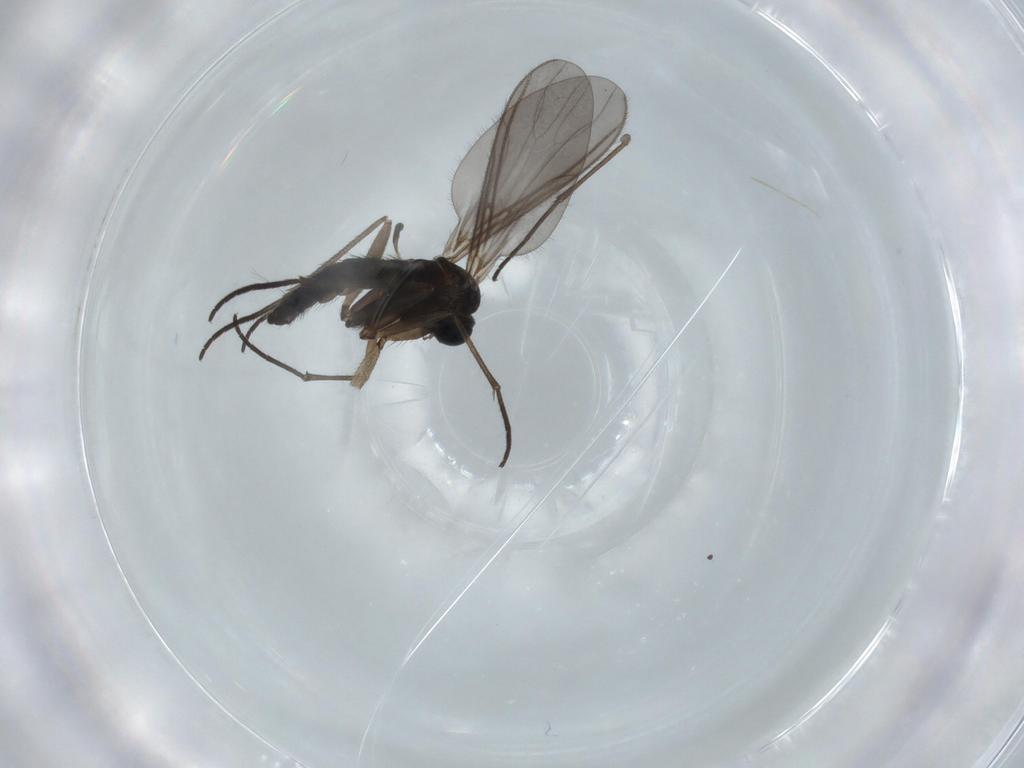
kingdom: Animalia
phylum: Arthropoda
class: Insecta
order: Diptera
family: Sciaridae
